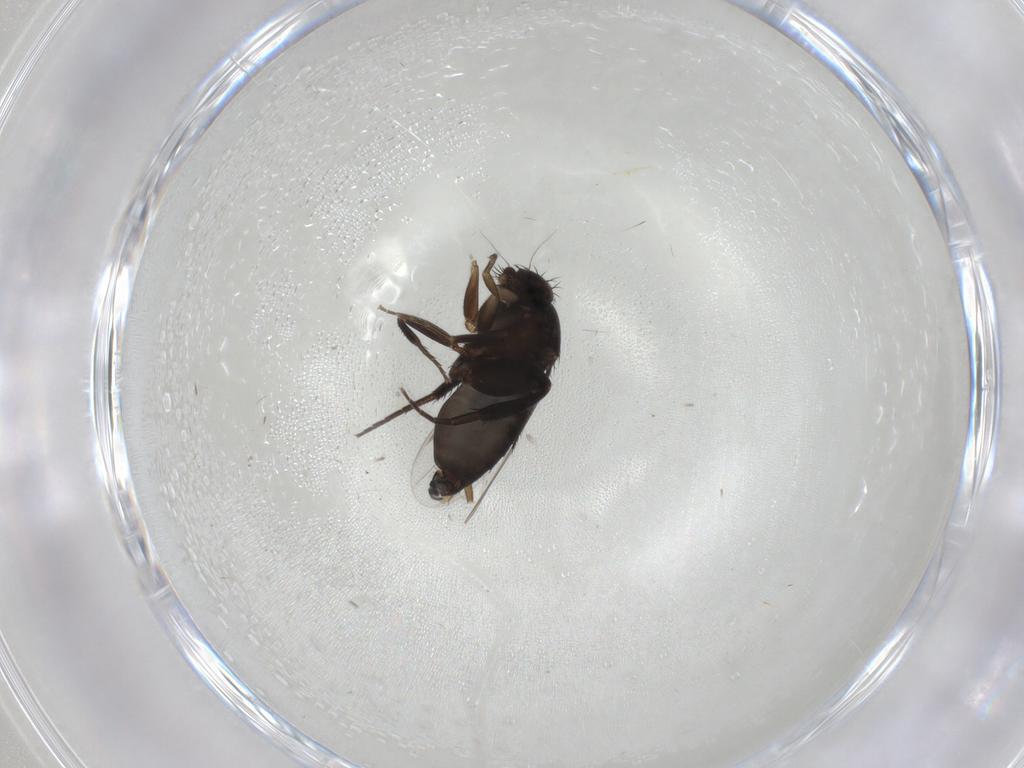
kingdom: Animalia
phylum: Arthropoda
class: Insecta
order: Diptera
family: Phoridae
